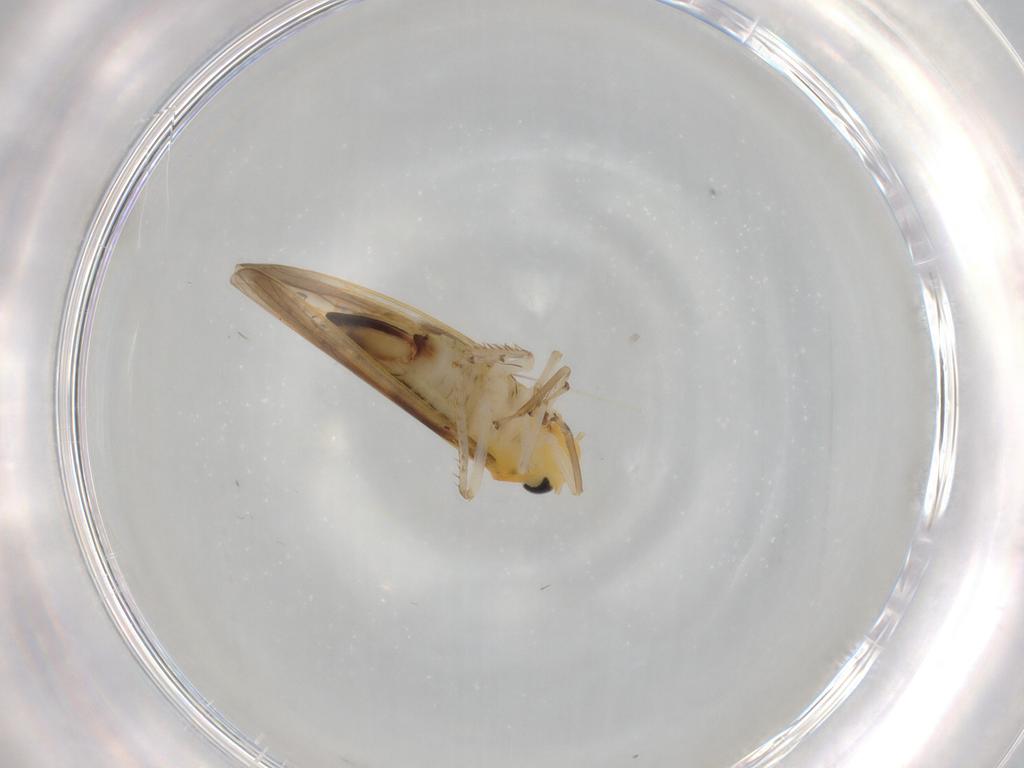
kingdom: Animalia
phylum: Arthropoda
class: Insecta
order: Hemiptera
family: Cicadellidae
